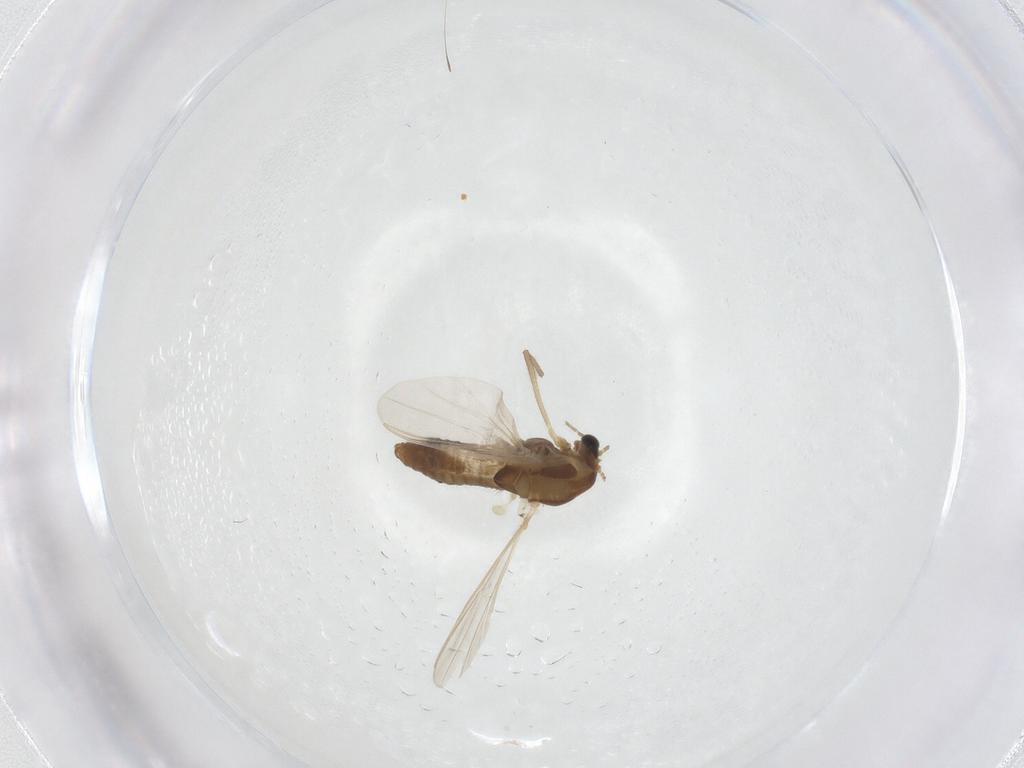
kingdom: Animalia
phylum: Arthropoda
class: Insecta
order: Diptera
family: Chironomidae
